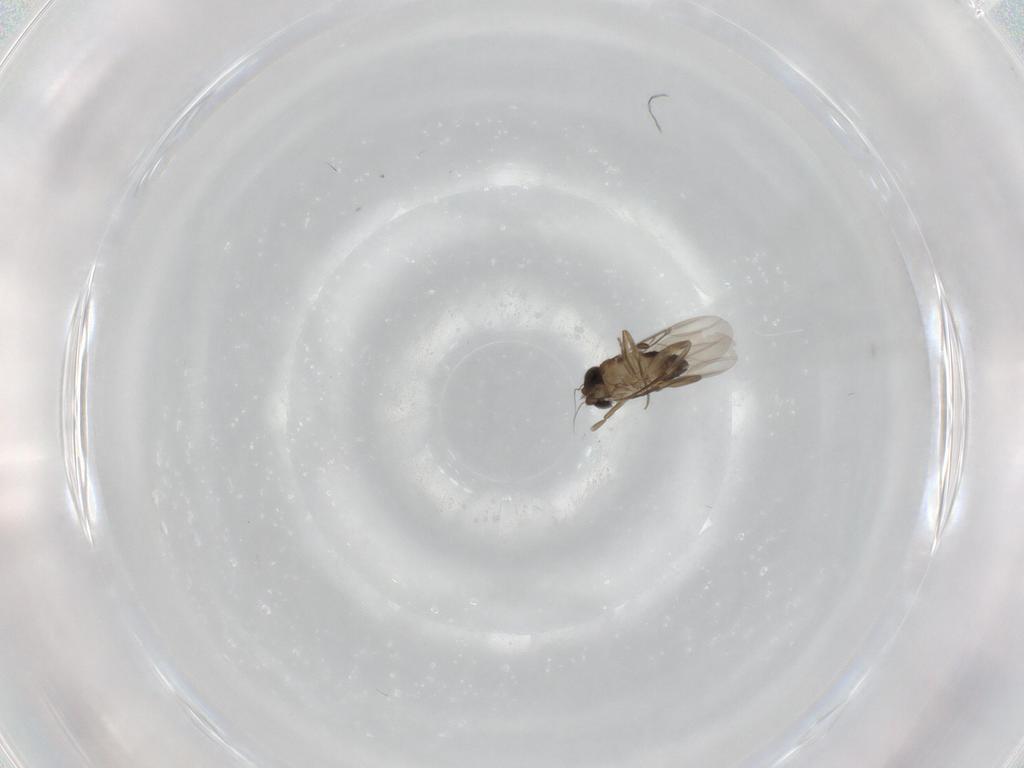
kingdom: Animalia
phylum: Arthropoda
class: Insecta
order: Diptera
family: Phoridae
